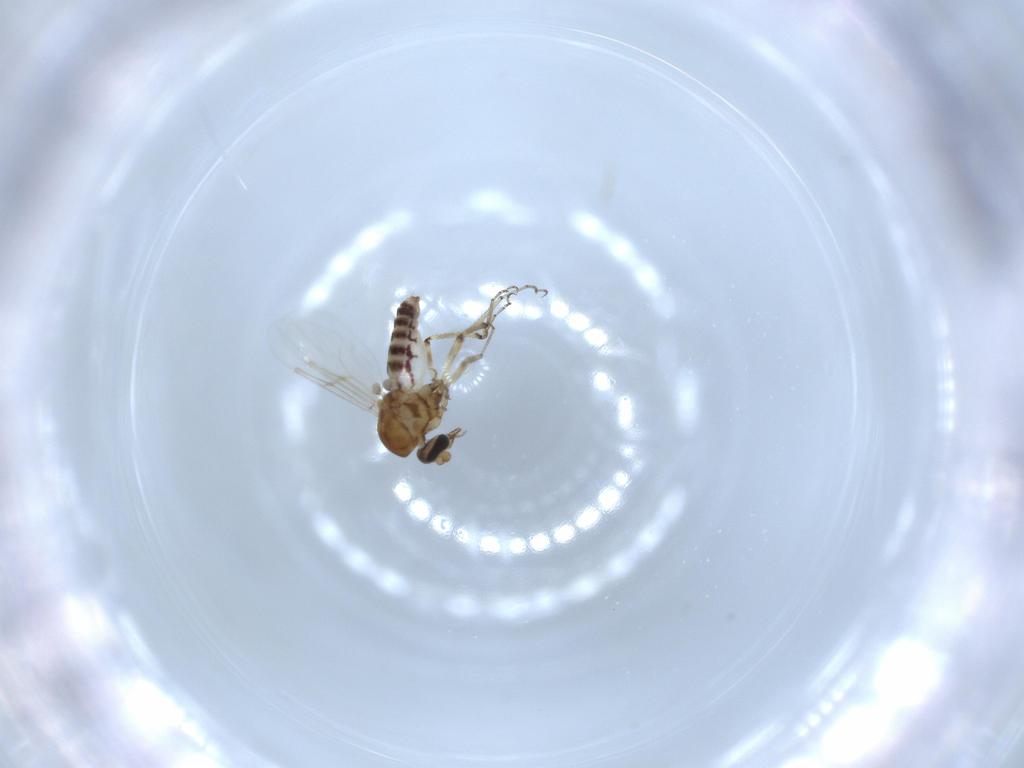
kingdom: Animalia
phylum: Arthropoda
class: Insecta
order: Diptera
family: Ceratopogonidae
